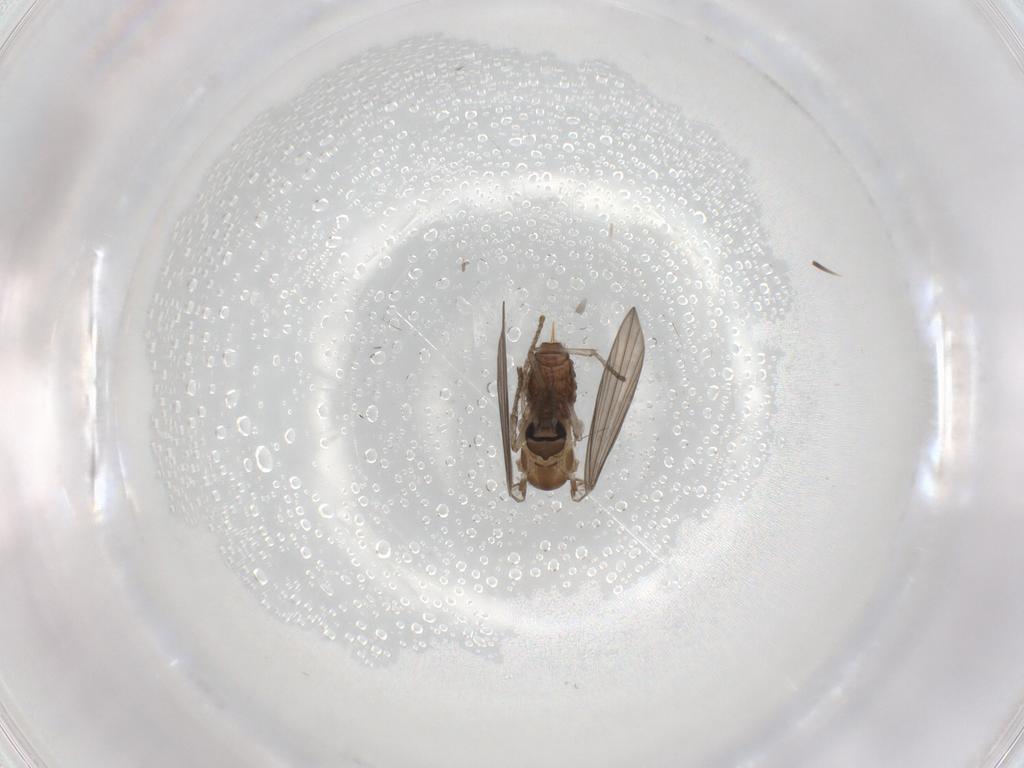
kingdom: Animalia
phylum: Arthropoda
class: Insecta
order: Diptera
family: Psychodidae
